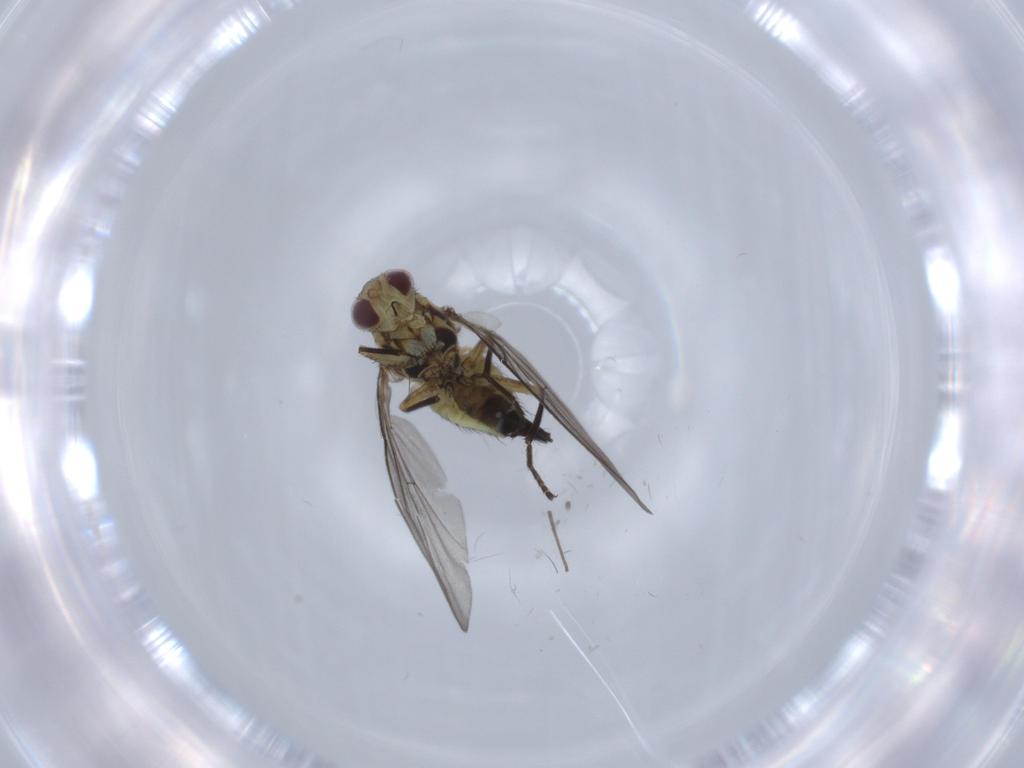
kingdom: Animalia
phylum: Arthropoda
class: Insecta
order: Diptera
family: Agromyzidae
